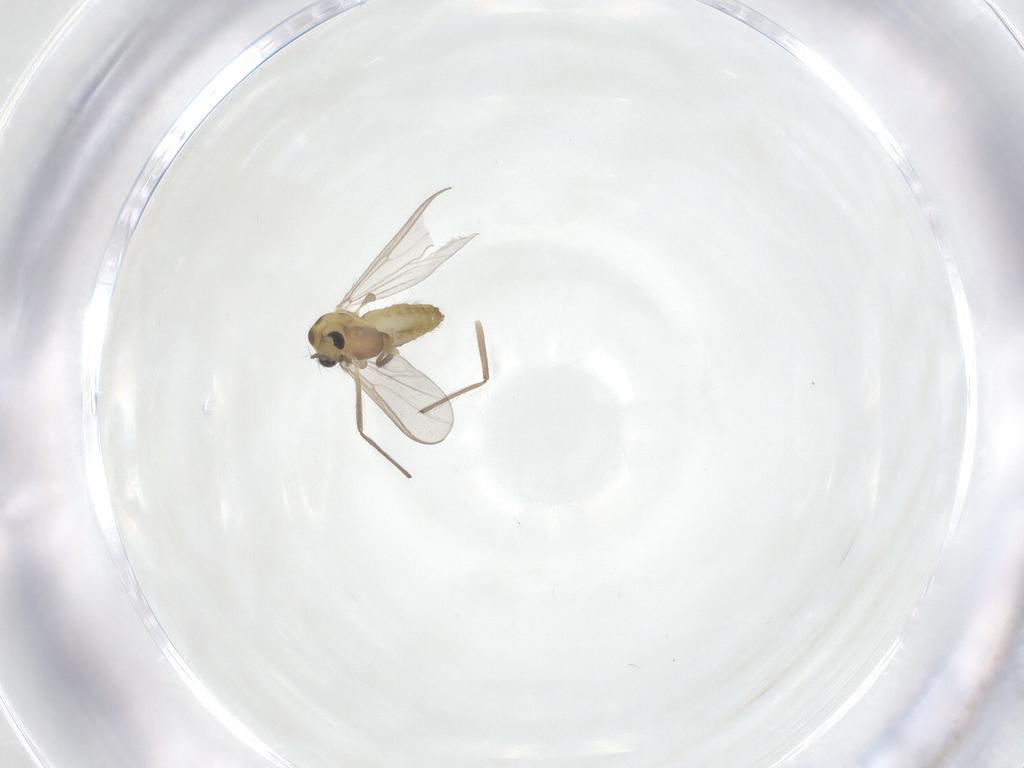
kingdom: Animalia
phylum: Arthropoda
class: Insecta
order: Diptera
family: Chironomidae
